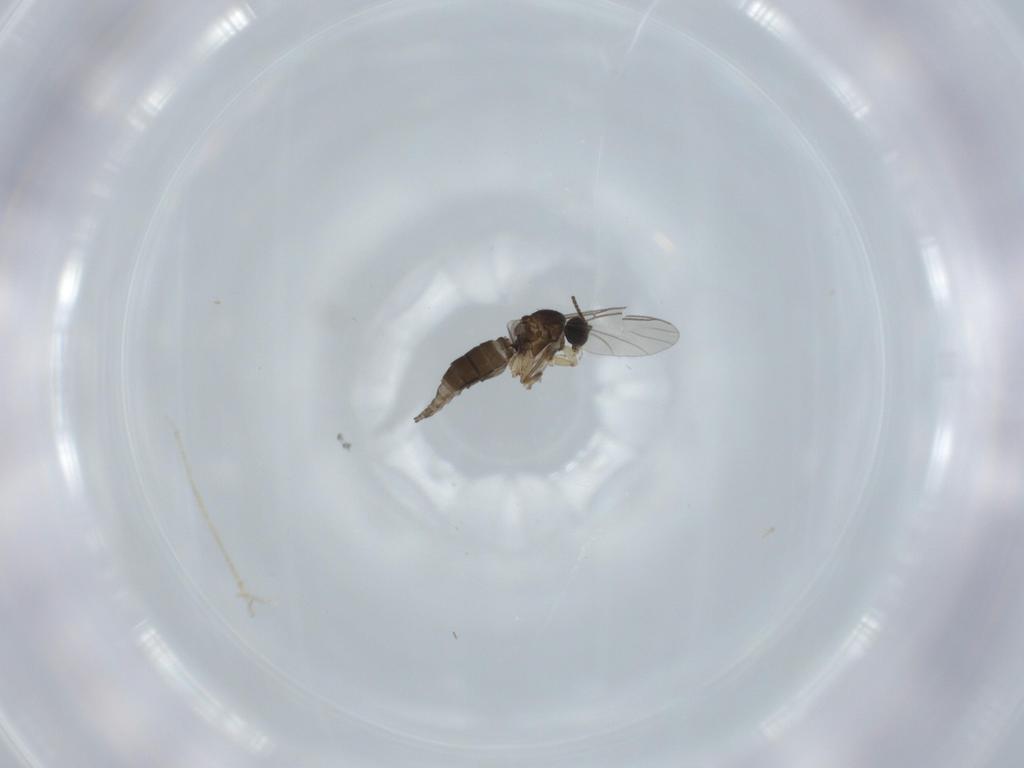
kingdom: Animalia
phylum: Arthropoda
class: Insecta
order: Diptera
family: Sciaridae
